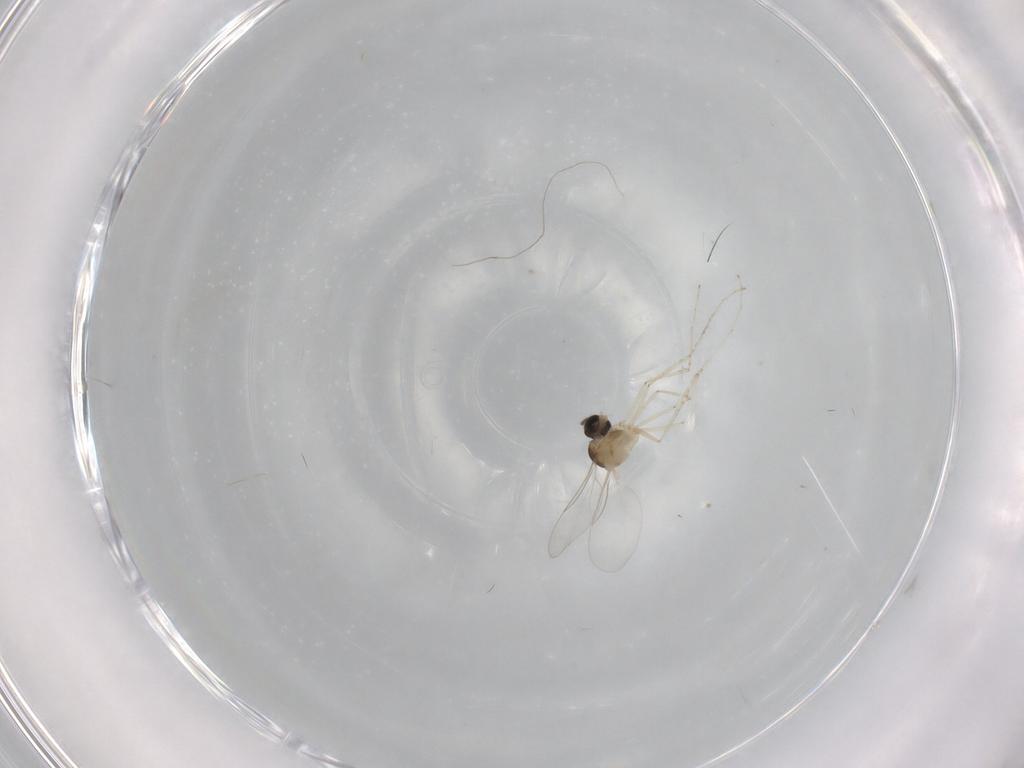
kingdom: Animalia
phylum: Arthropoda
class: Insecta
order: Diptera
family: Cecidomyiidae
